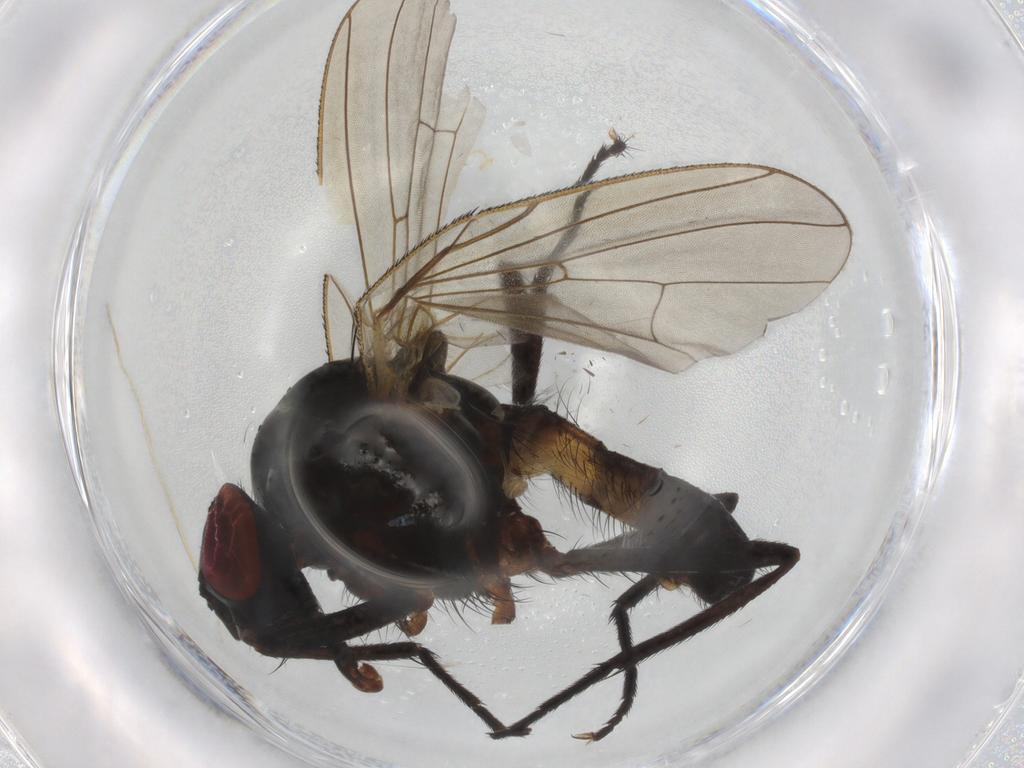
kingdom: Animalia
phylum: Arthropoda
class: Insecta
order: Diptera
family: Anthomyiidae
